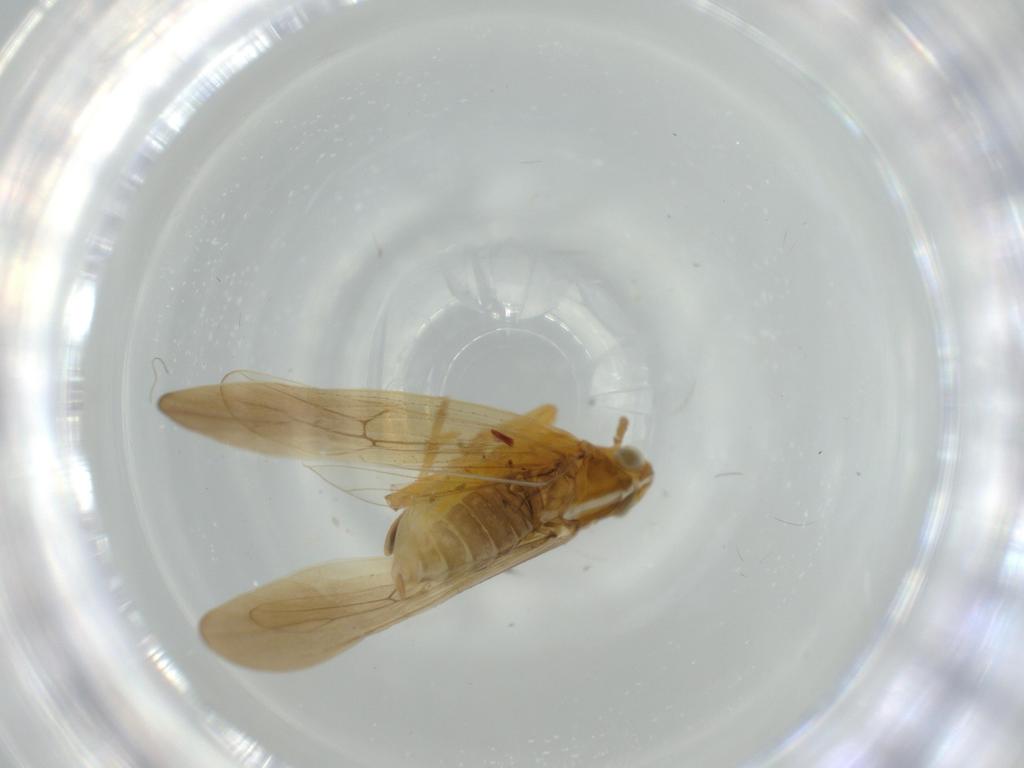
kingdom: Animalia
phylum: Arthropoda
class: Insecta
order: Hemiptera
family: Delphacidae
